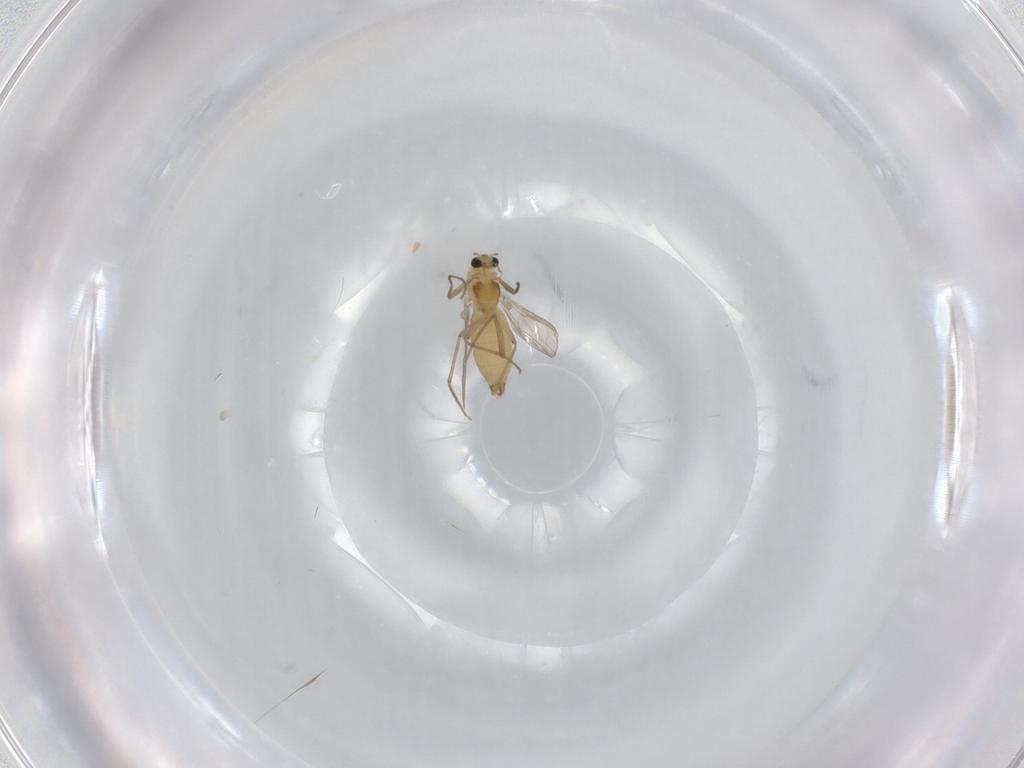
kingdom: Animalia
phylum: Arthropoda
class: Insecta
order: Diptera
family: Chironomidae
